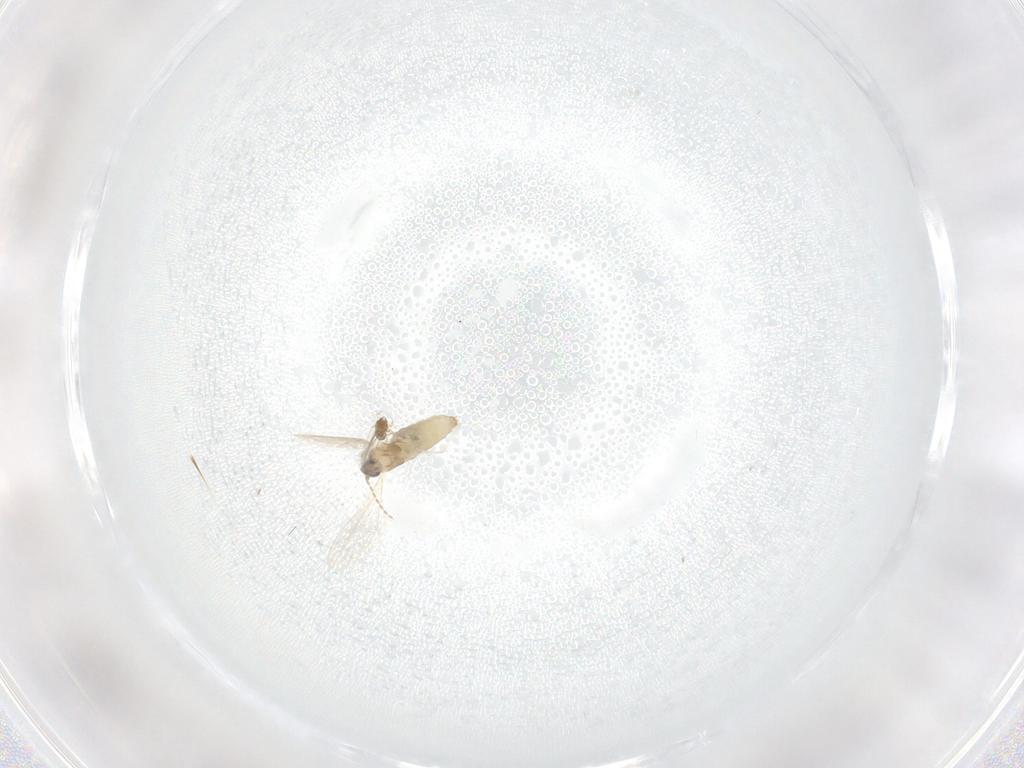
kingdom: Animalia
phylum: Arthropoda
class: Insecta
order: Diptera
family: Cecidomyiidae
